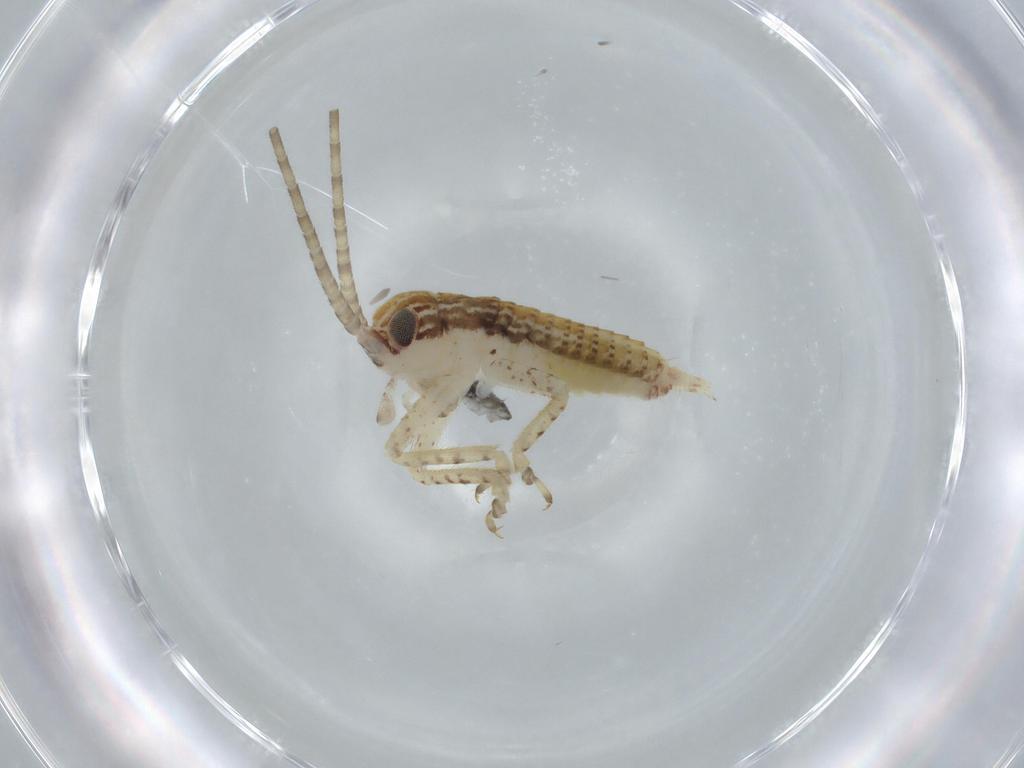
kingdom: Animalia
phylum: Arthropoda
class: Insecta
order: Orthoptera
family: Gryllidae
